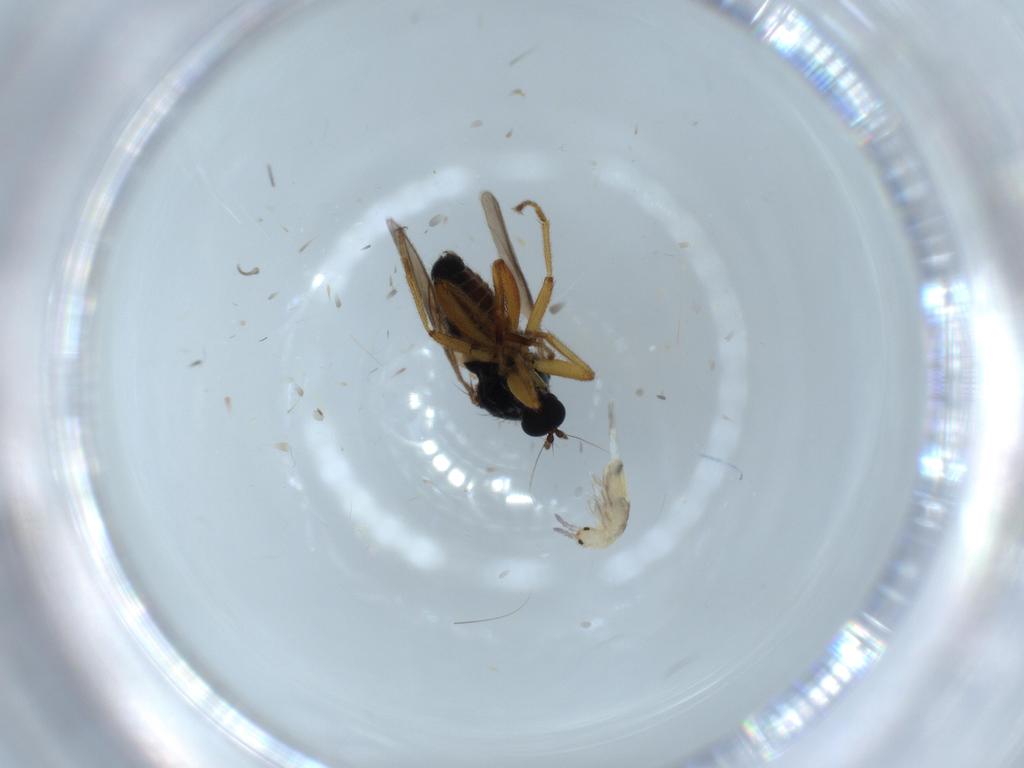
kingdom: Animalia
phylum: Arthropoda
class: Insecta
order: Diptera
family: Hybotidae
